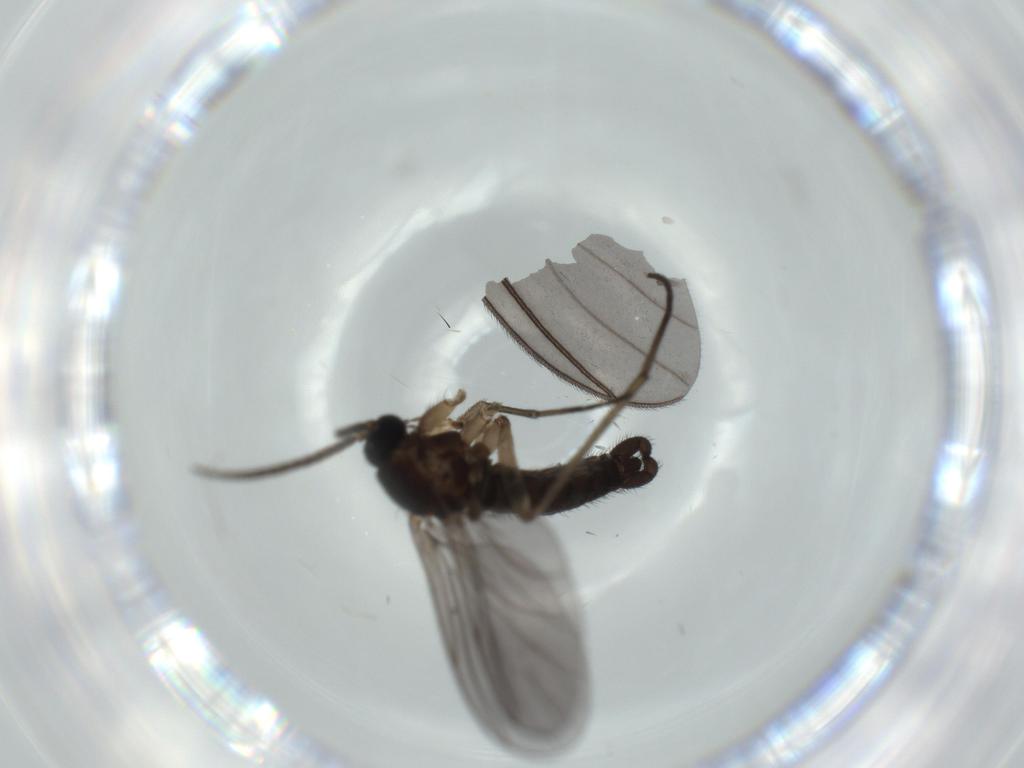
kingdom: Animalia
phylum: Arthropoda
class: Insecta
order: Diptera
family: Sciaridae
